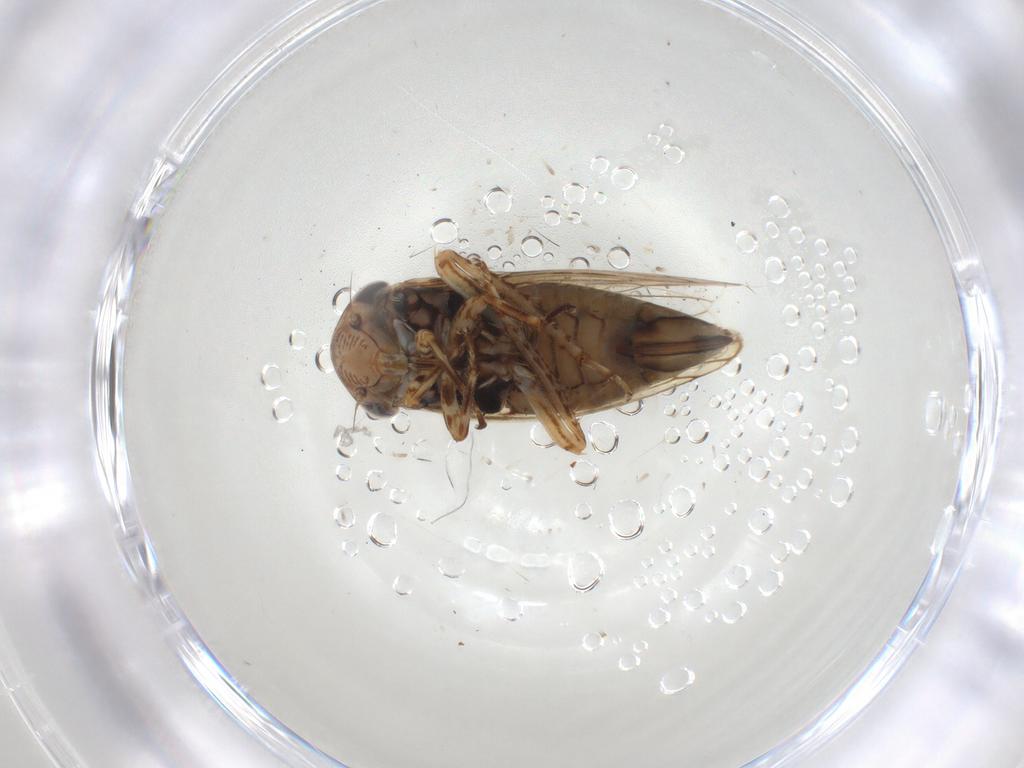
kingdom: Animalia
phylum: Arthropoda
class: Insecta
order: Hemiptera
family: Cicadellidae
